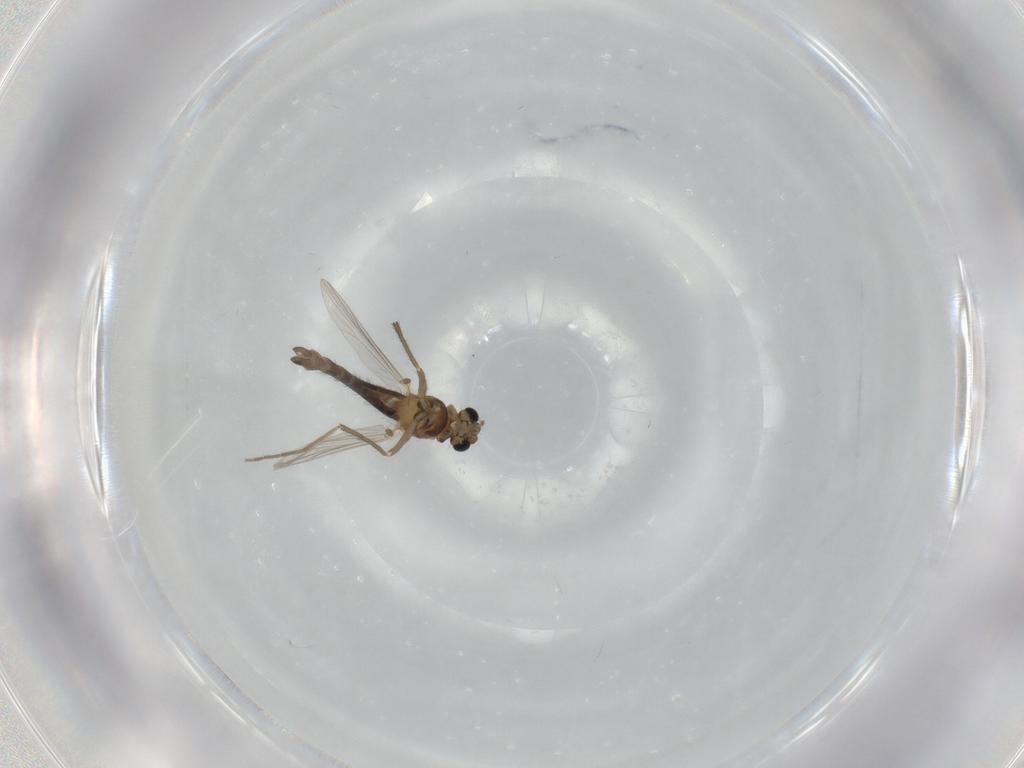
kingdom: Animalia
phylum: Arthropoda
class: Insecta
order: Diptera
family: Chironomidae
